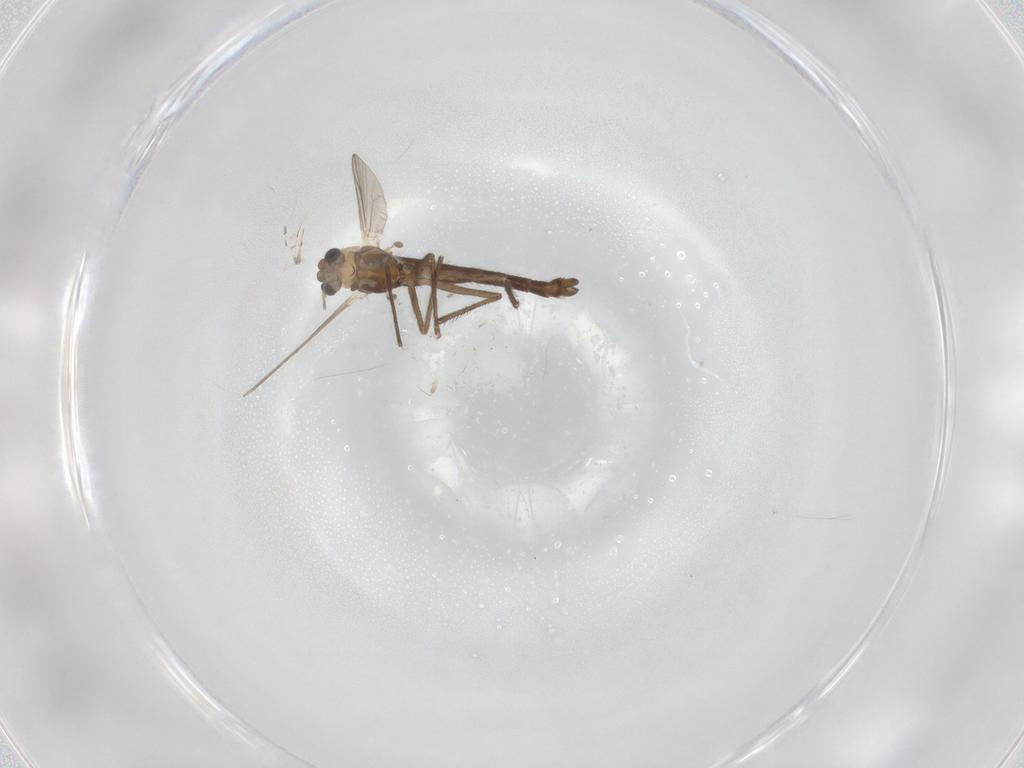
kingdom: Animalia
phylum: Arthropoda
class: Insecta
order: Diptera
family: Chironomidae
